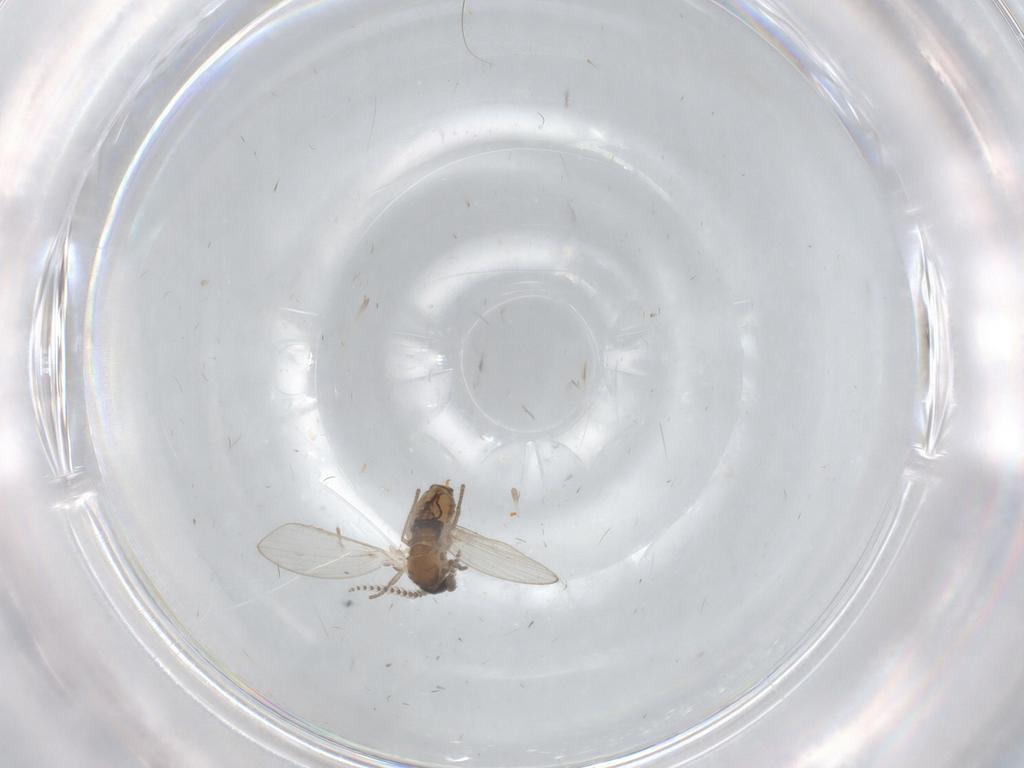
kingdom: Animalia
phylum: Arthropoda
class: Insecta
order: Diptera
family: Psychodidae
